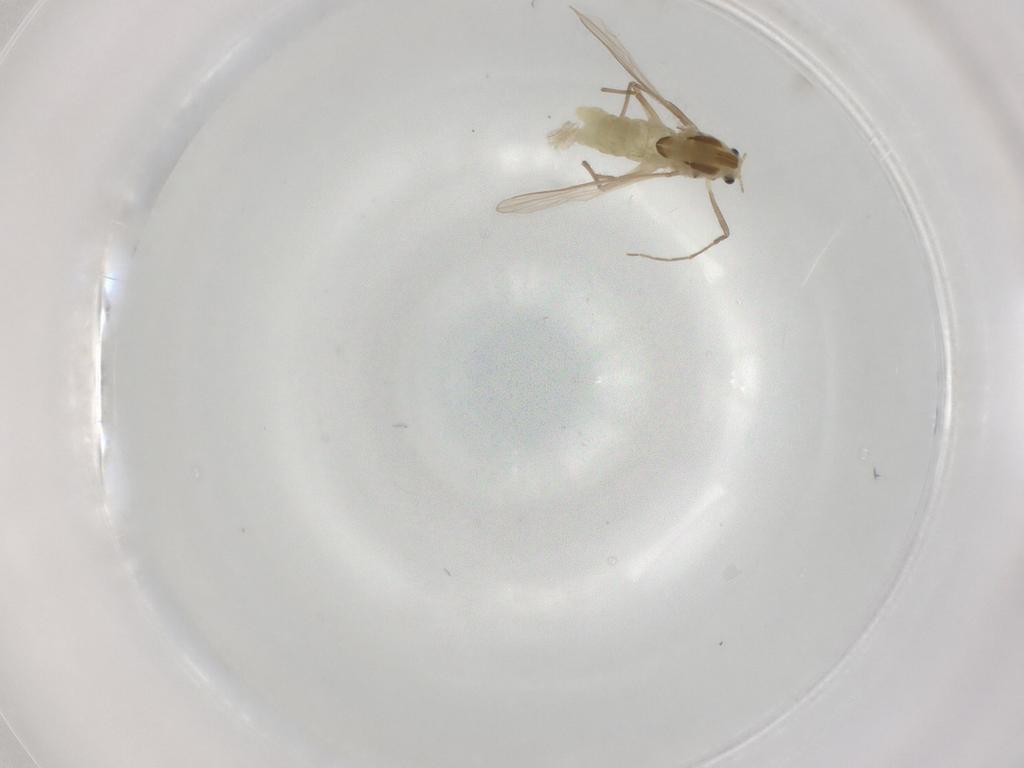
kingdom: Animalia
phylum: Arthropoda
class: Insecta
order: Diptera
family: Chironomidae
